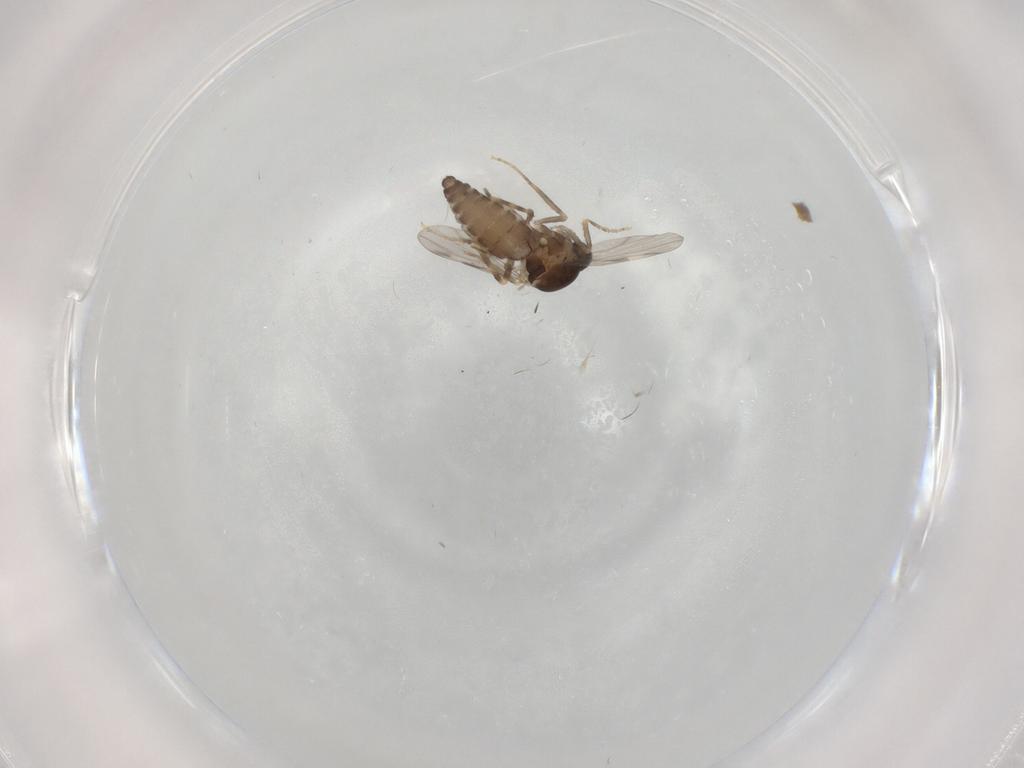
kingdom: Animalia
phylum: Arthropoda
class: Insecta
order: Diptera
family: Ceratopogonidae
